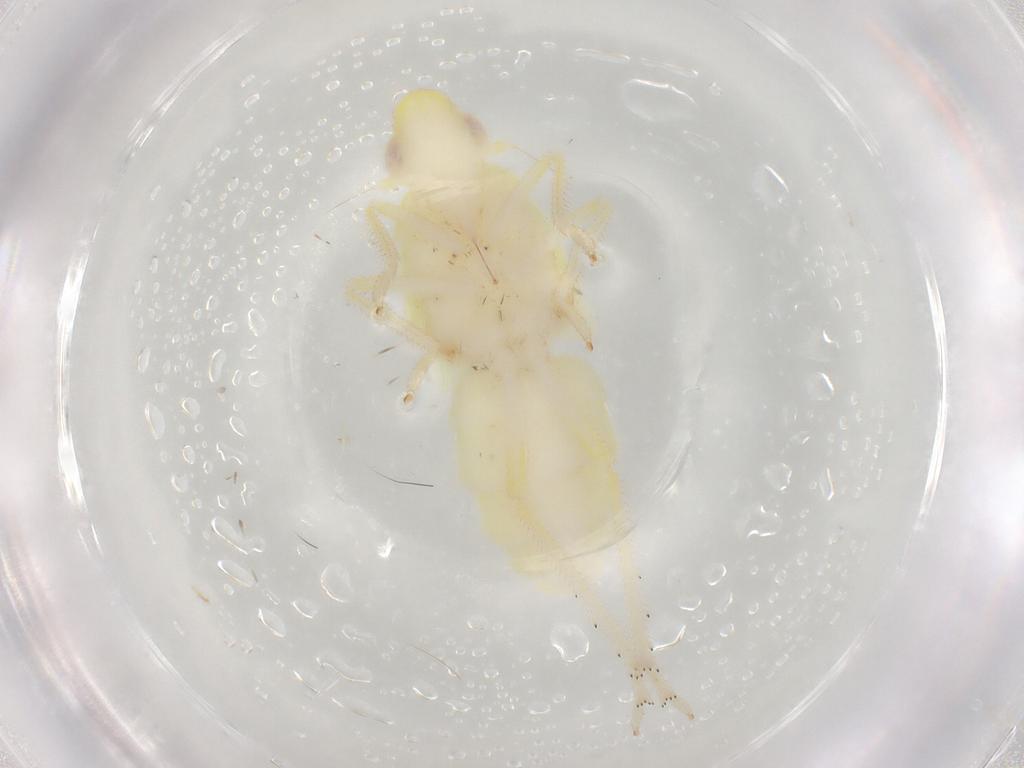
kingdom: Animalia
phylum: Arthropoda
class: Insecta
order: Hemiptera
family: Tropiduchidae
